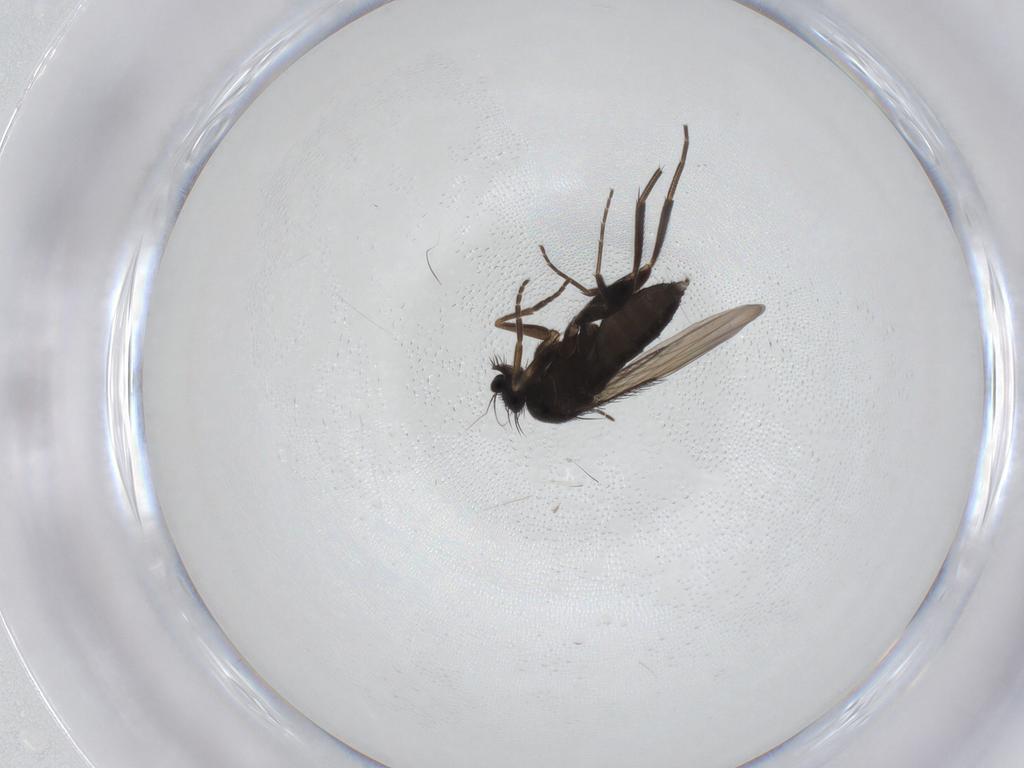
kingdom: Animalia
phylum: Arthropoda
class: Insecta
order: Diptera
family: Phoridae
